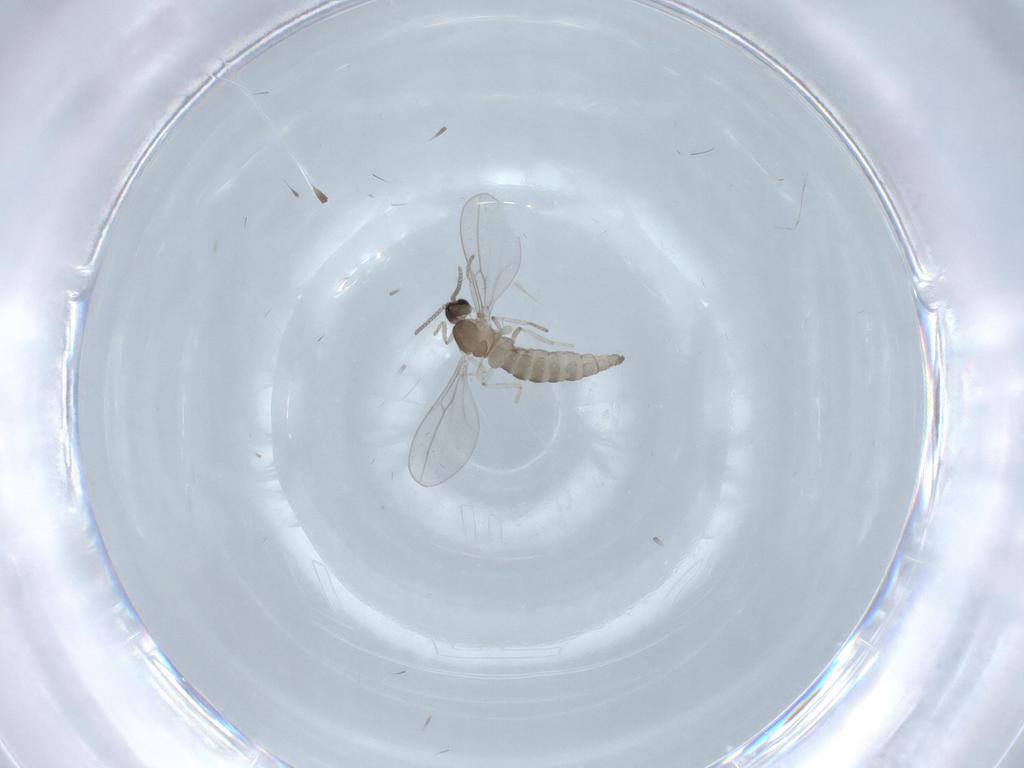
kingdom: Animalia
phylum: Arthropoda
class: Insecta
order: Diptera
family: Cecidomyiidae
